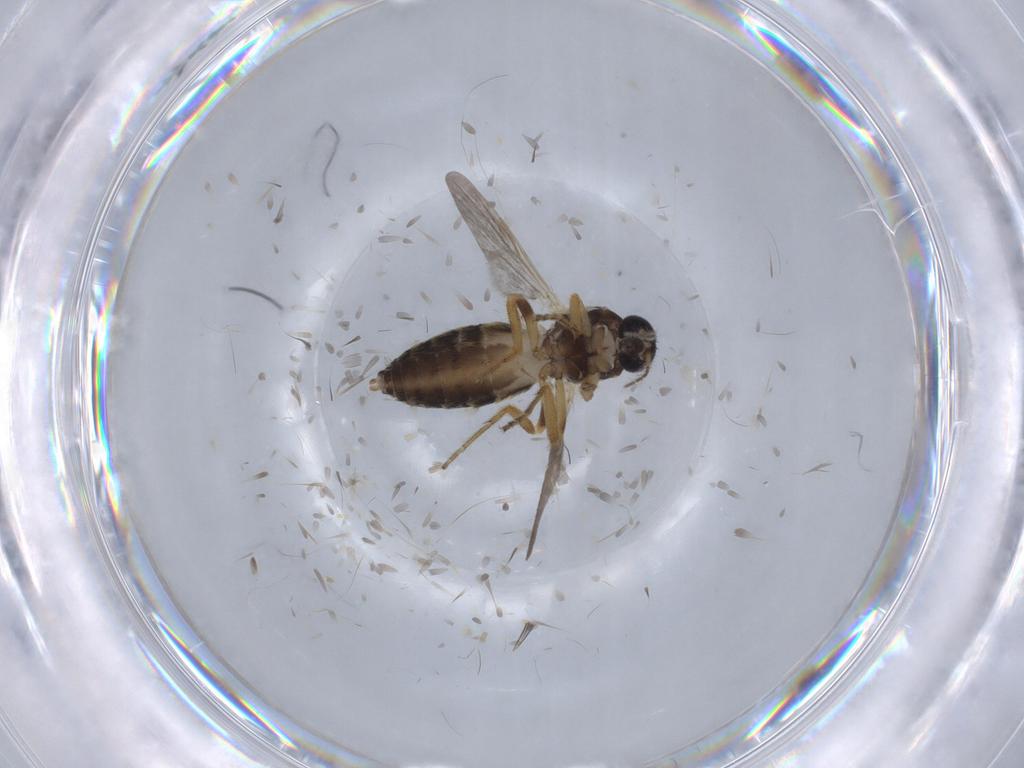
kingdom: Animalia
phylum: Arthropoda
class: Insecta
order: Diptera
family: Ceratopogonidae
